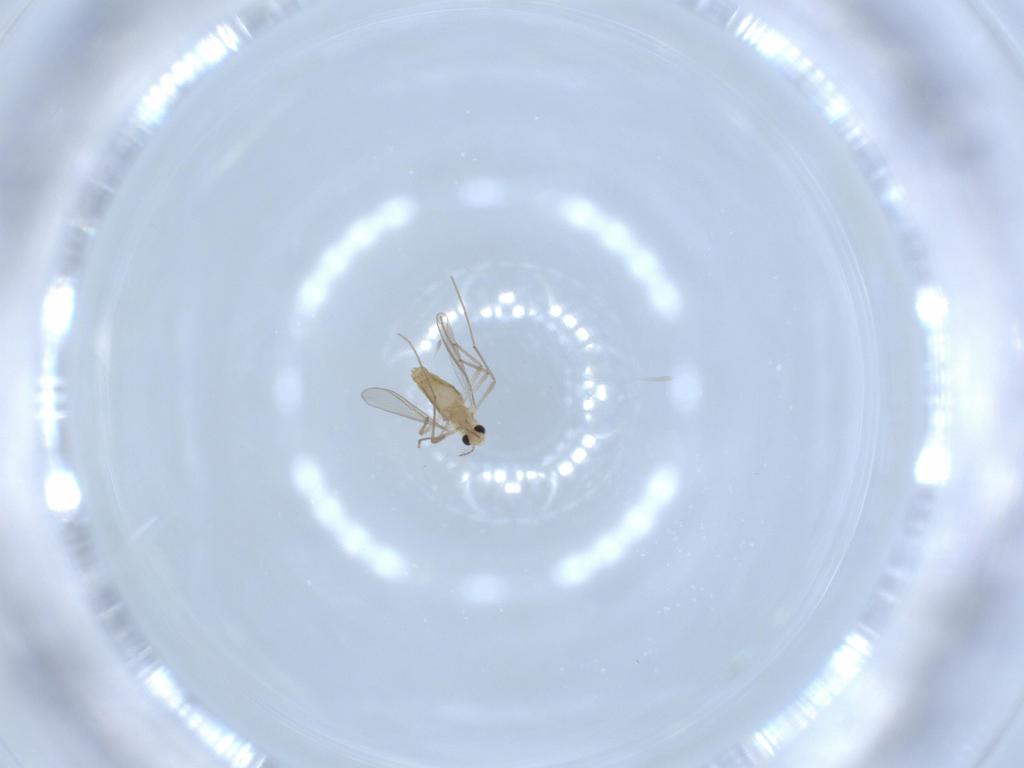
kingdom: Animalia
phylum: Arthropoda
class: Insecta
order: Diptera
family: Chironomidae
